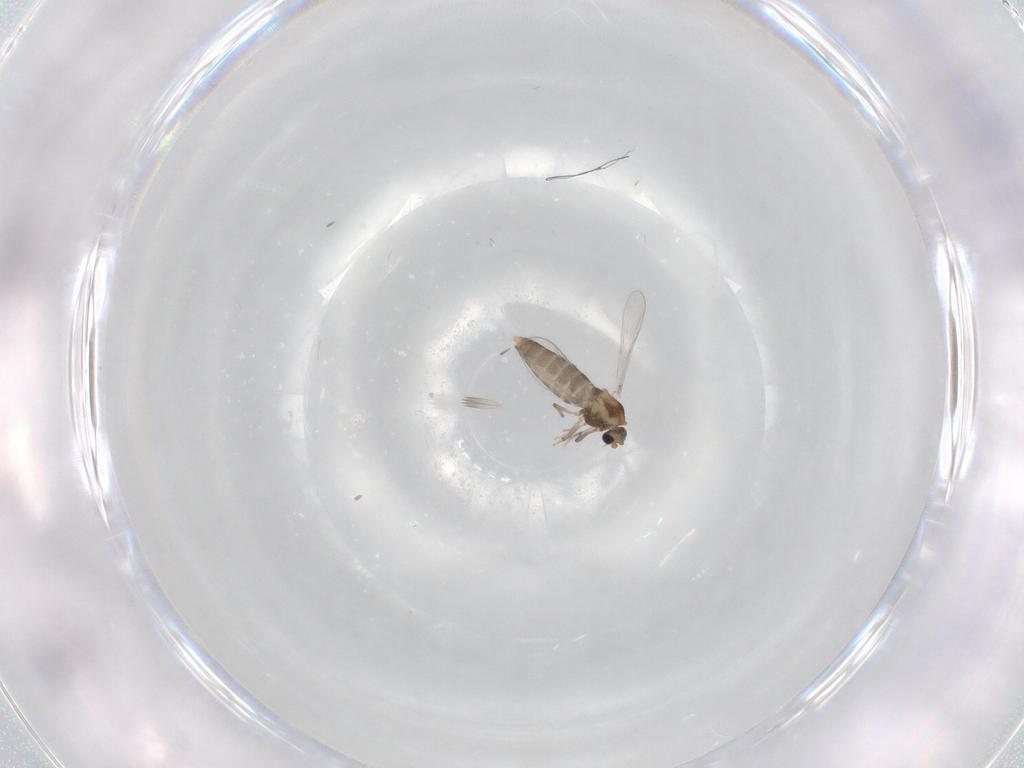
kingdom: Animalia
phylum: Arthropoda
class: Insecta
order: Diptera
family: Chironomidae
